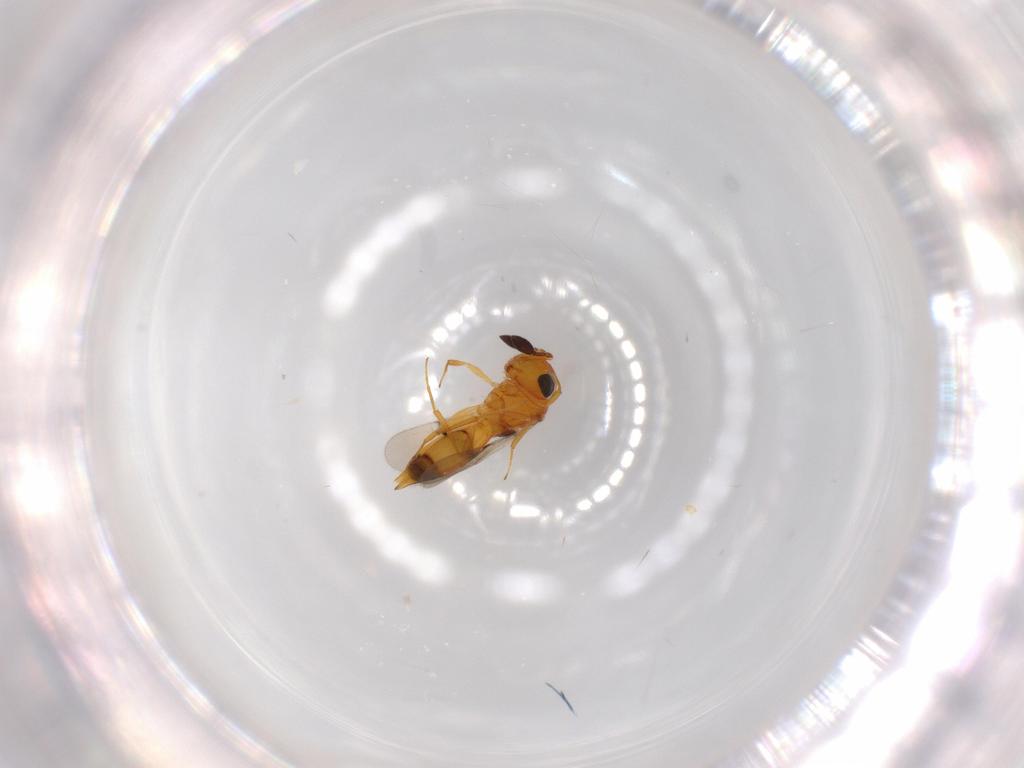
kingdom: Animalia
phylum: Arthropoda
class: Insecta
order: Hymenoptera
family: Scelionidae
